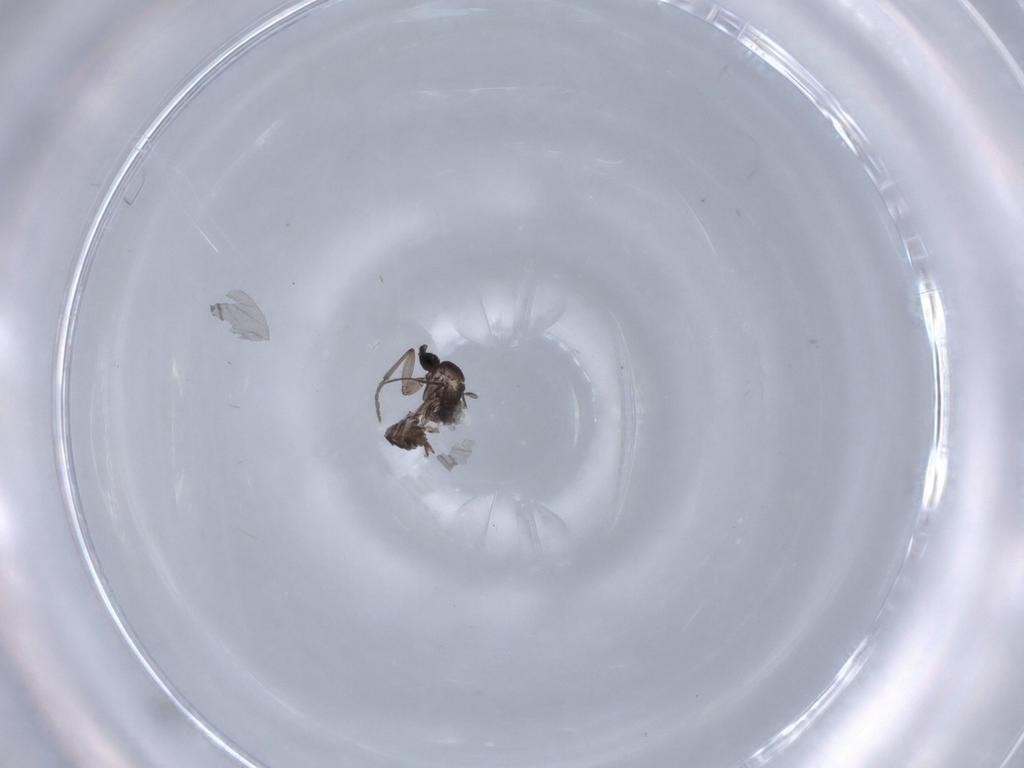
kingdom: Animalia
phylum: Arthropoda
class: Insecta
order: Diptera
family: Sciaridae
